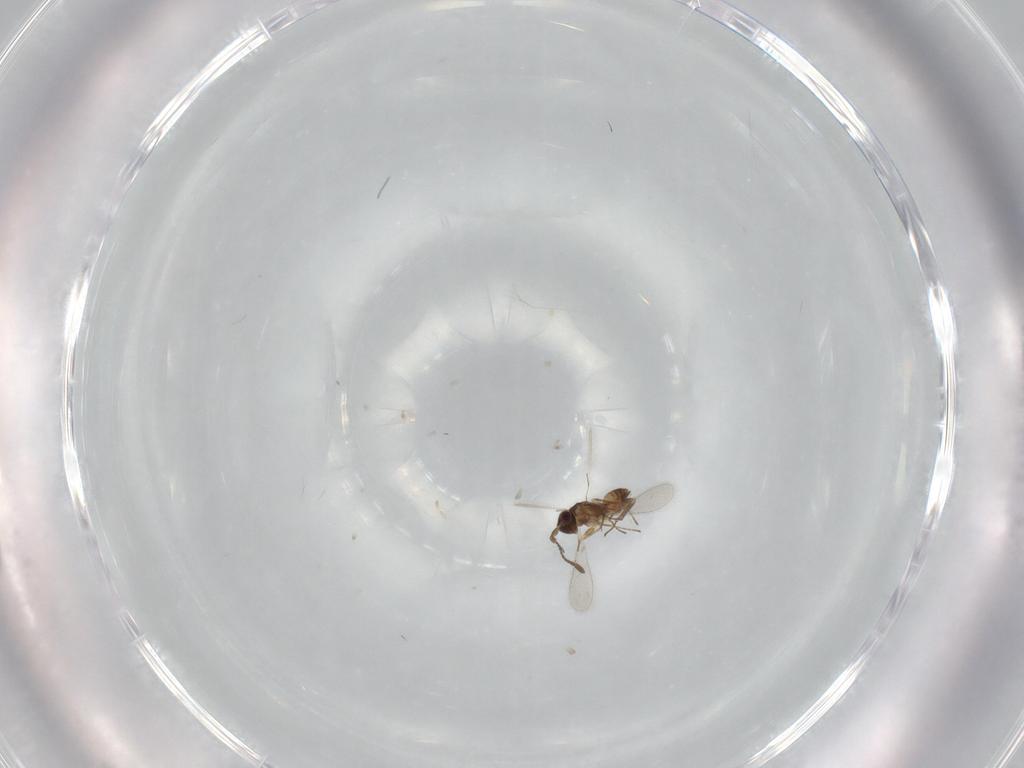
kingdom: Animalia
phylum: Arthropoda
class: Insecta
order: Hymenoptera
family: Mymaridae
